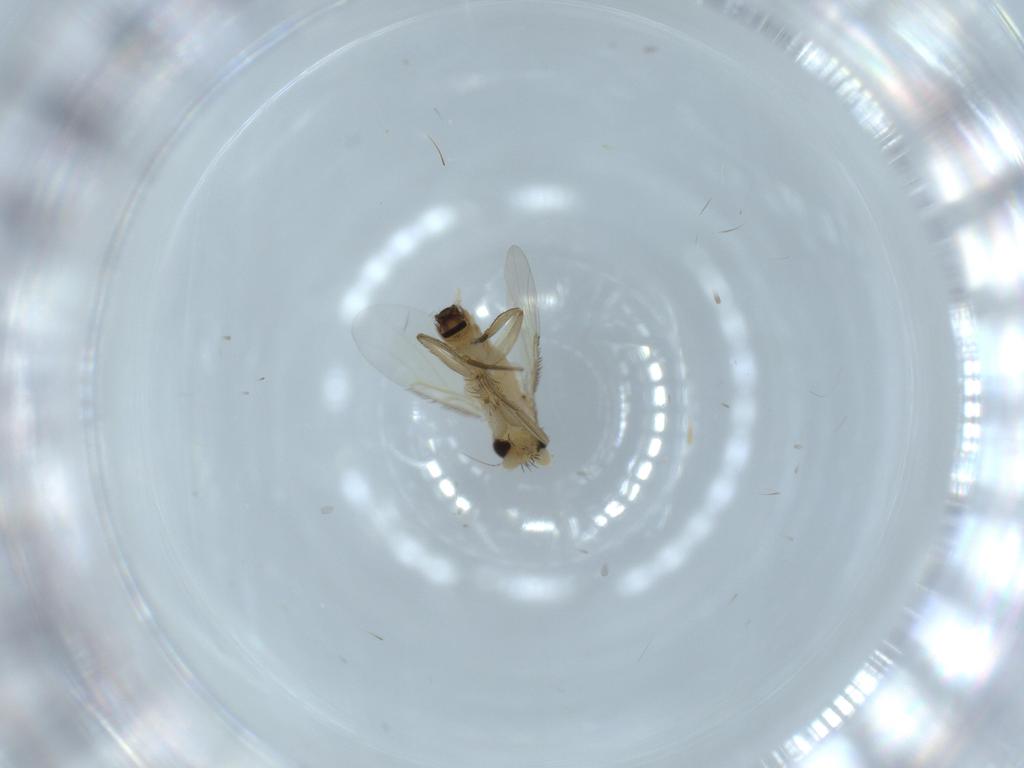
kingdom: Animalia
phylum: Arthropoda
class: Insecta
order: Diptera
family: Phoridae
